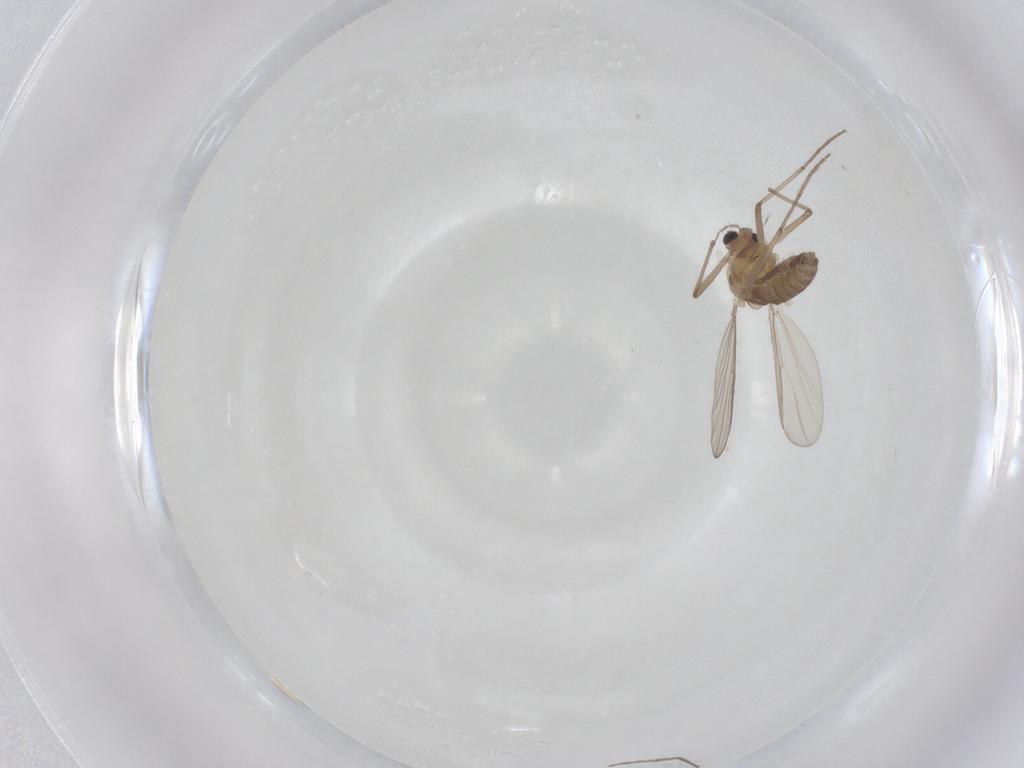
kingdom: Animalia
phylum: Arthropoda
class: Insecta
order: Diptera
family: Chironomidae
